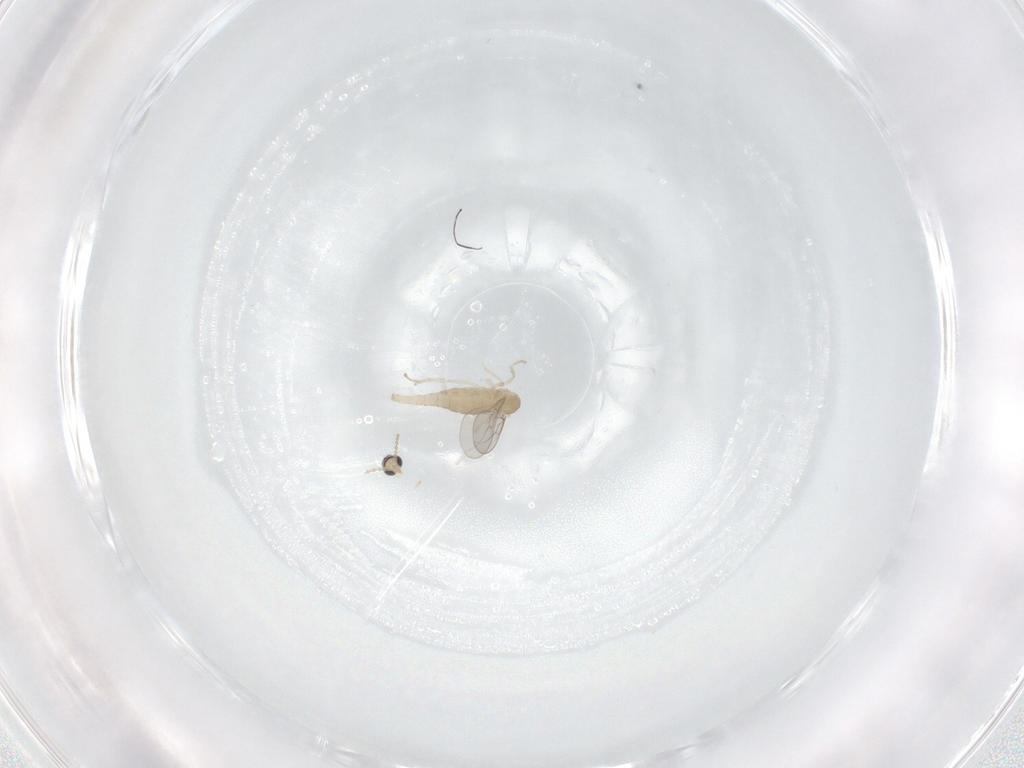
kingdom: Animalia
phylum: Arthropoda
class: Insecta
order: Diptera
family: Cecidomyiidae
